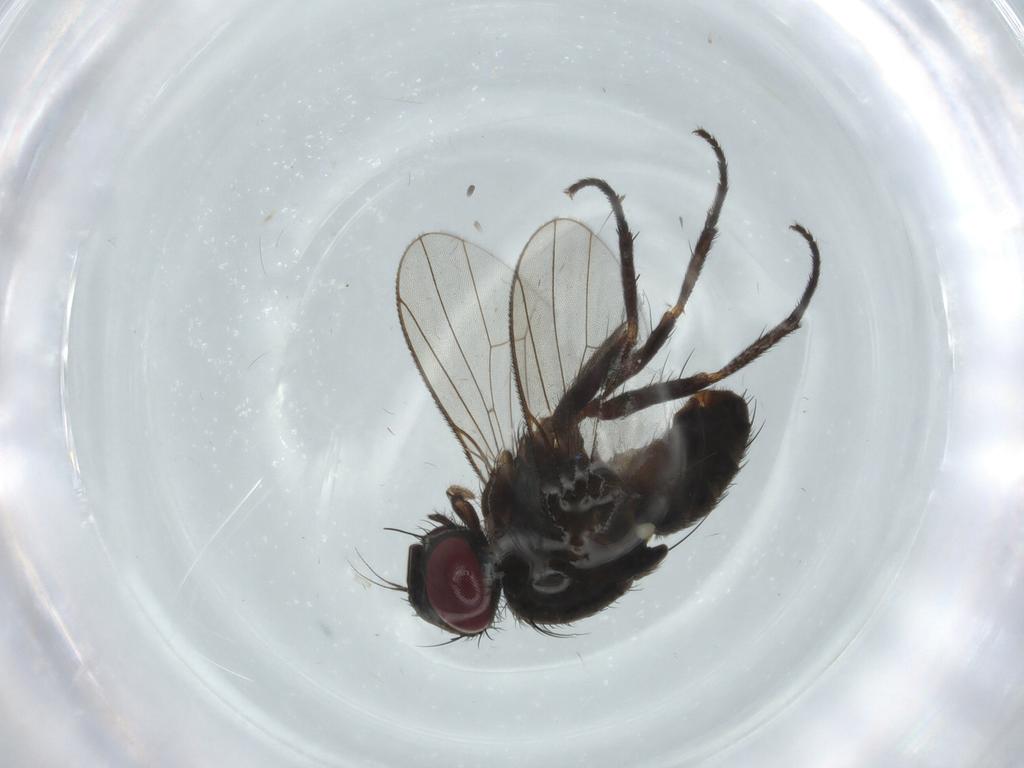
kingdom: Animalia
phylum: Arthropoda
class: Insecta
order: Diptera
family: Muscidae
